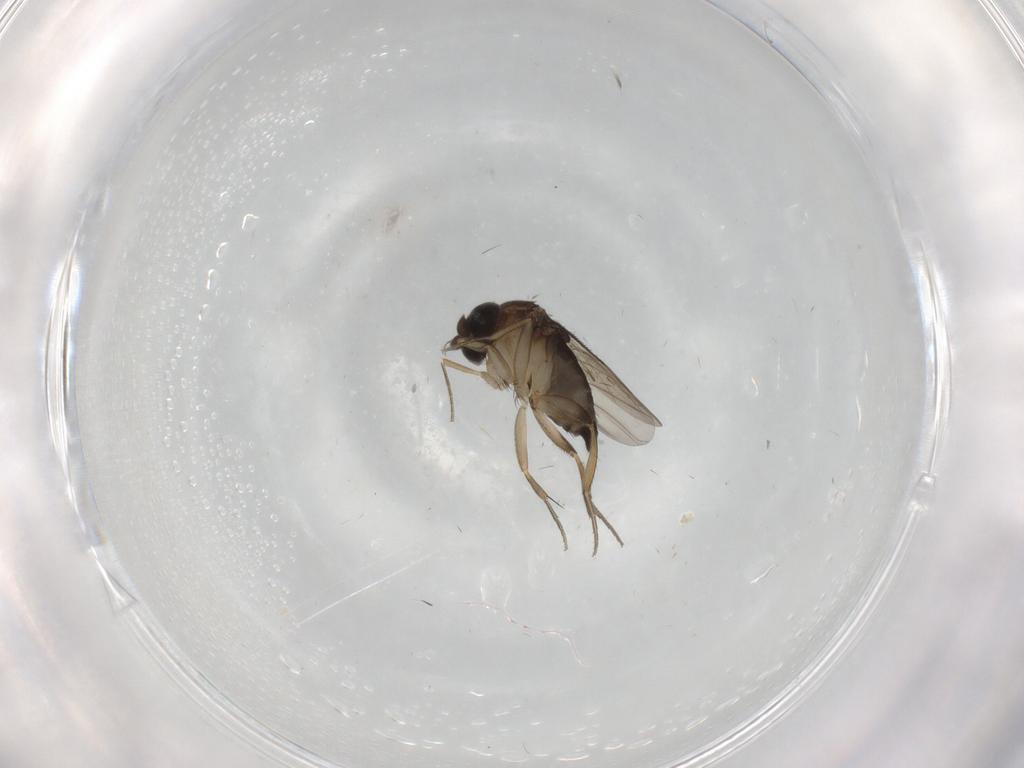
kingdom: Animalia
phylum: Arthropoda
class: Insecta
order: Diptera
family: Phoridae
